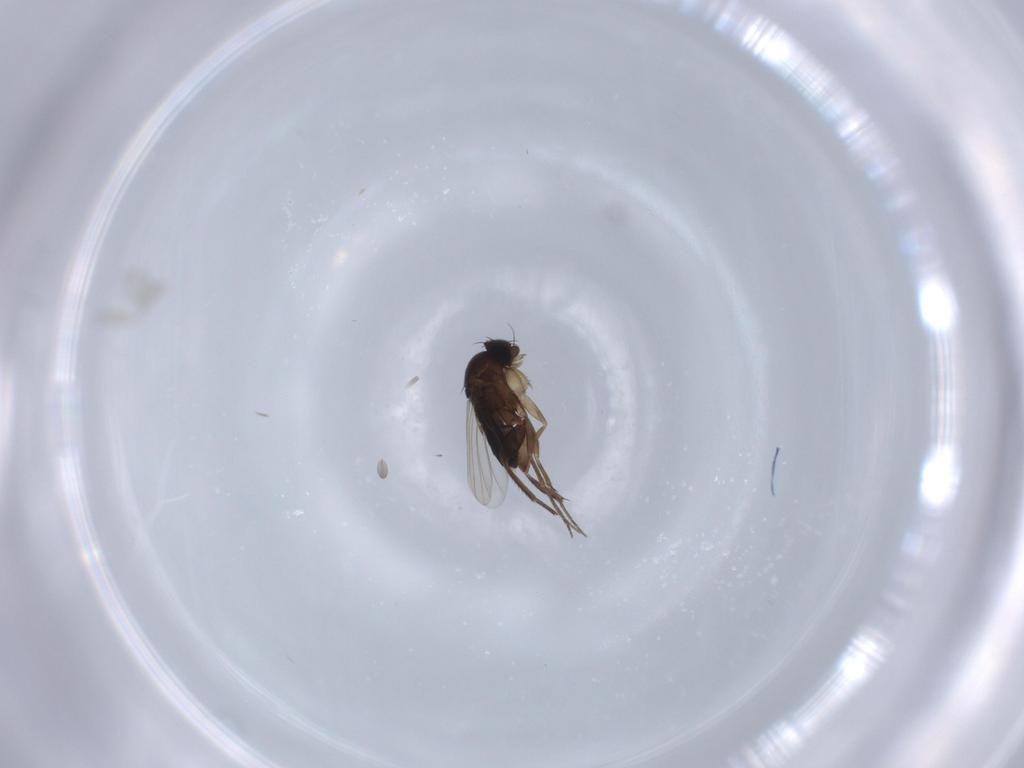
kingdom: Animalia
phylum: Arthropoda
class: Insecta
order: Diptera
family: Phoridae
